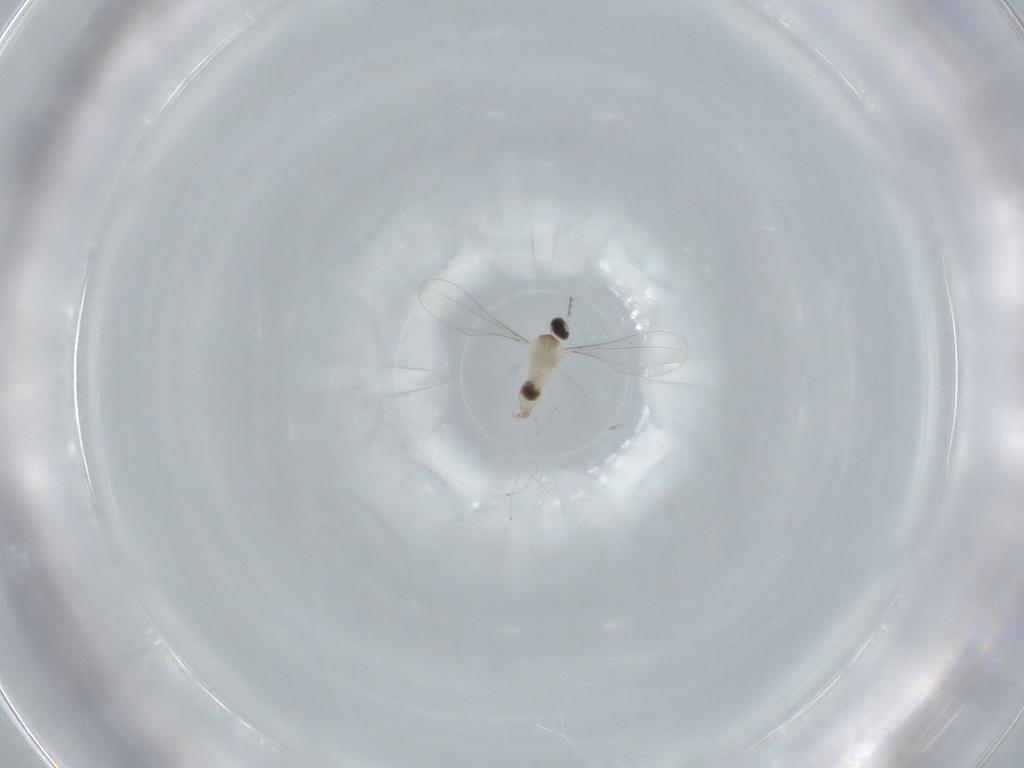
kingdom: Animalia
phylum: Arthropoda
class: Insecta
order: Diptera
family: Cecidomyiidae
